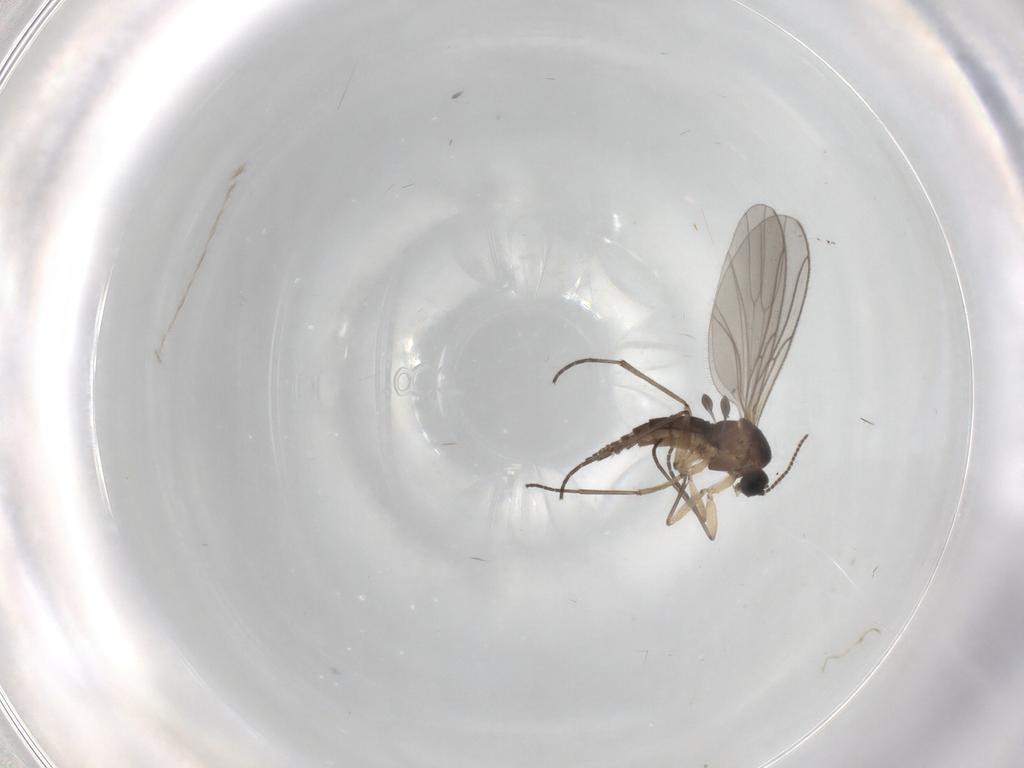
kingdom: Animalia
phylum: Arthropoda
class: Insecta
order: Diptera
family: Sciaridae
